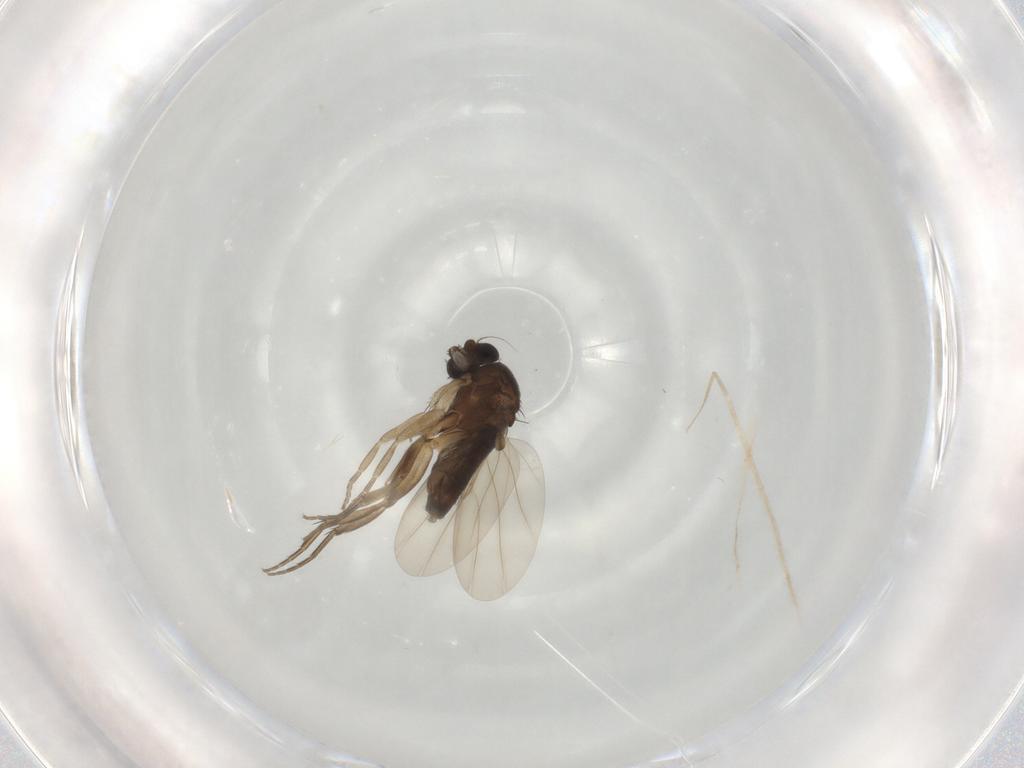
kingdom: Animalia
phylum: Arthropoda
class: Insecta
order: Diptera
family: Phoridae
